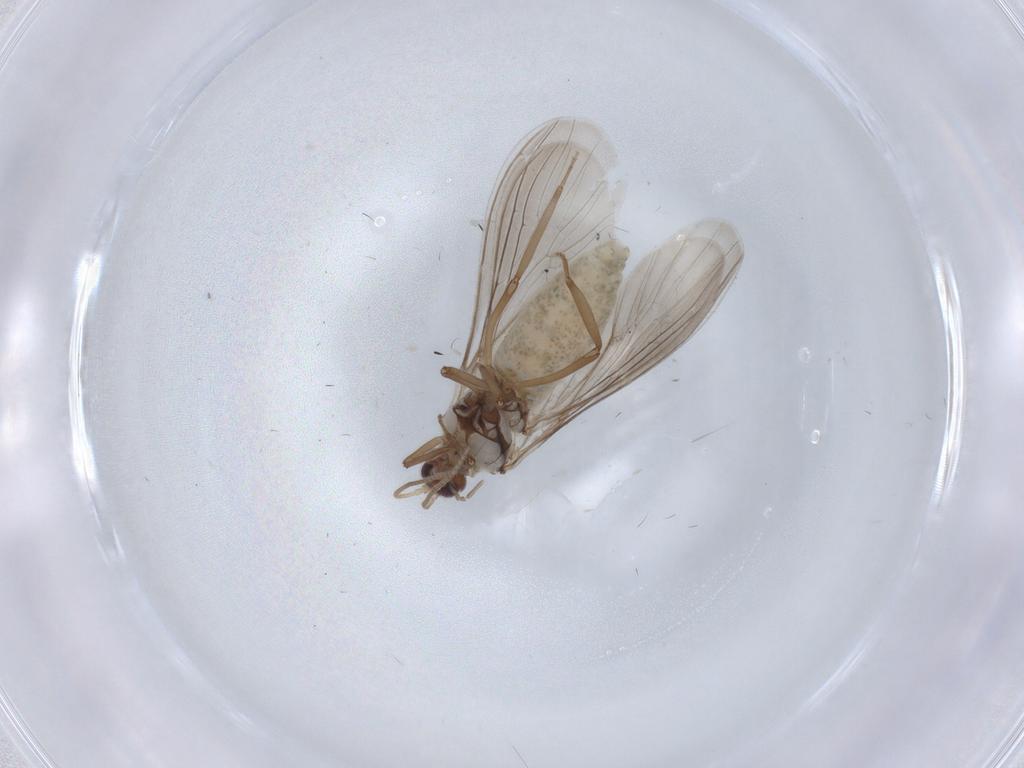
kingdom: Animalia
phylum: Arthropoda
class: Insecta
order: Neuroptera
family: Coniopterygidae
